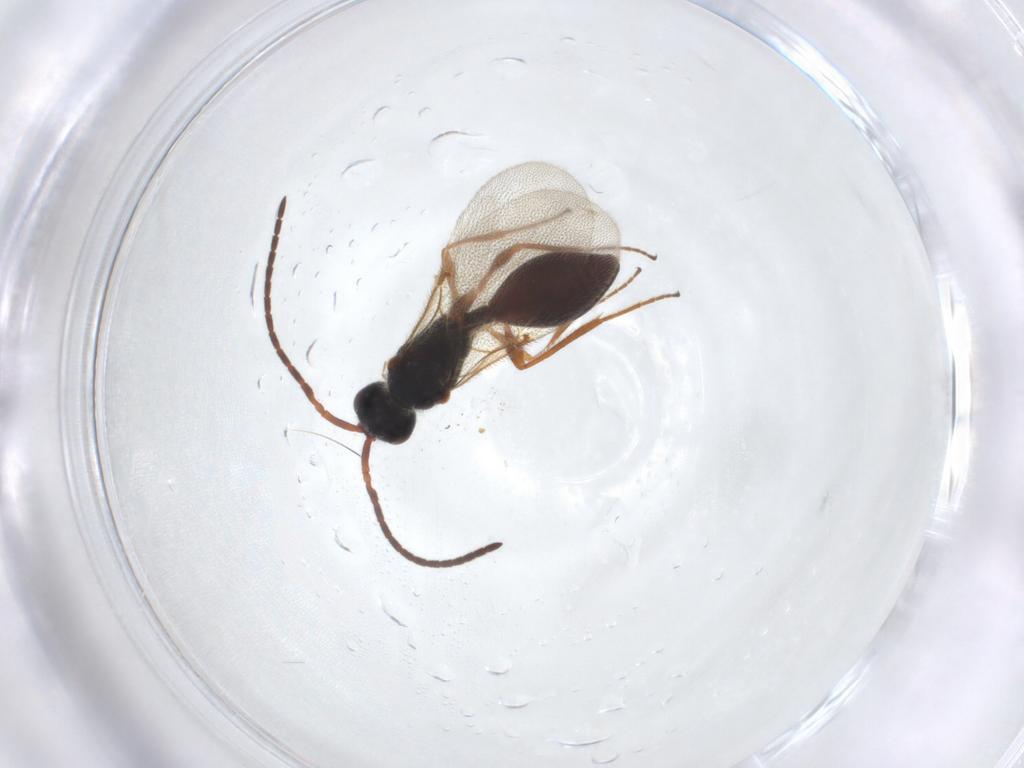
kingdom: Animalia
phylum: Arthropoda
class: Insecta
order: Hymenoptera
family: Diapriidae
